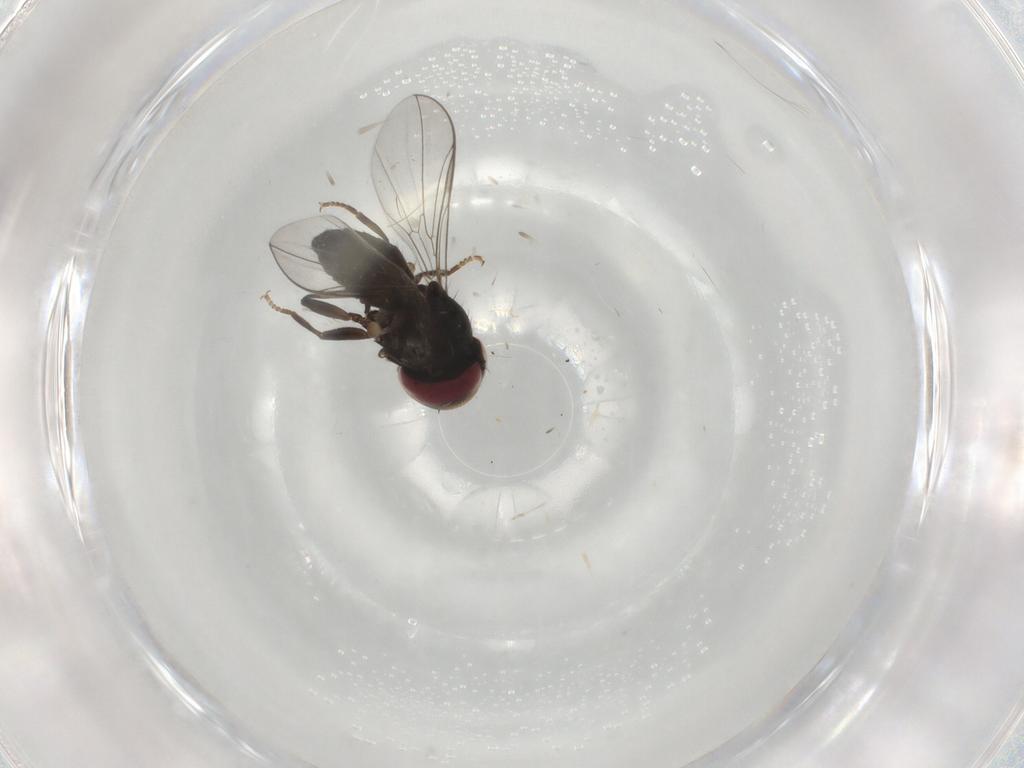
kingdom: Animalia
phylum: Arthropoda
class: Insecta
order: Diptera
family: Pipunculidae
